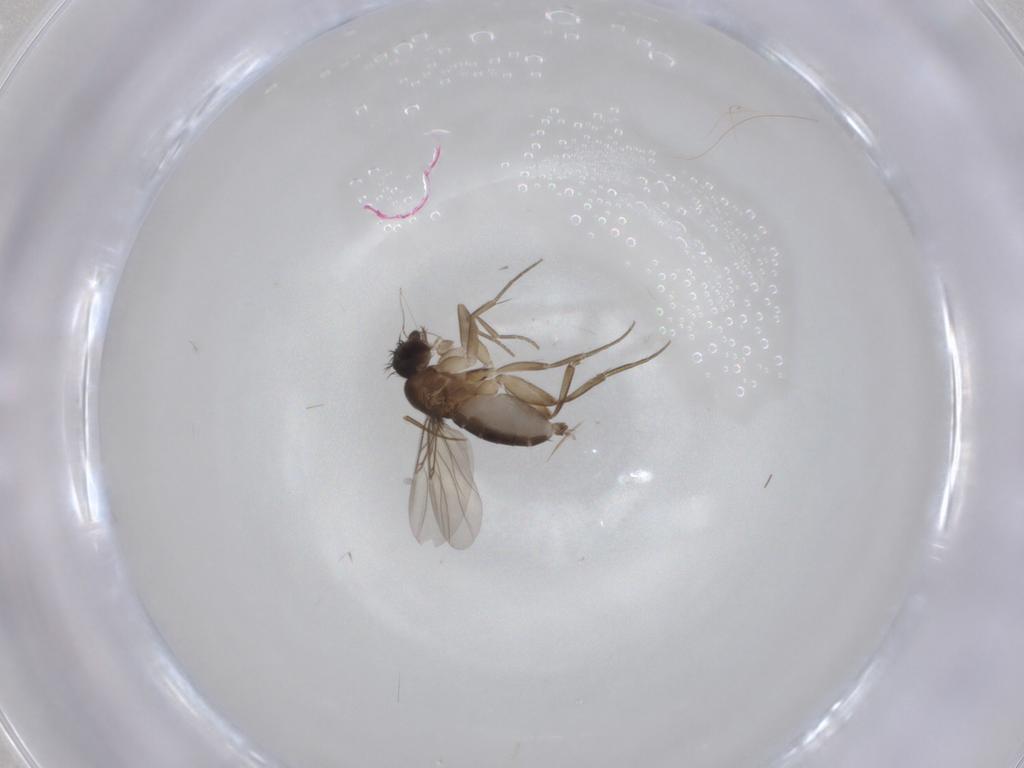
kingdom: Animalia
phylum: Arthropoda
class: Insecta
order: Diptera
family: Phoridae
